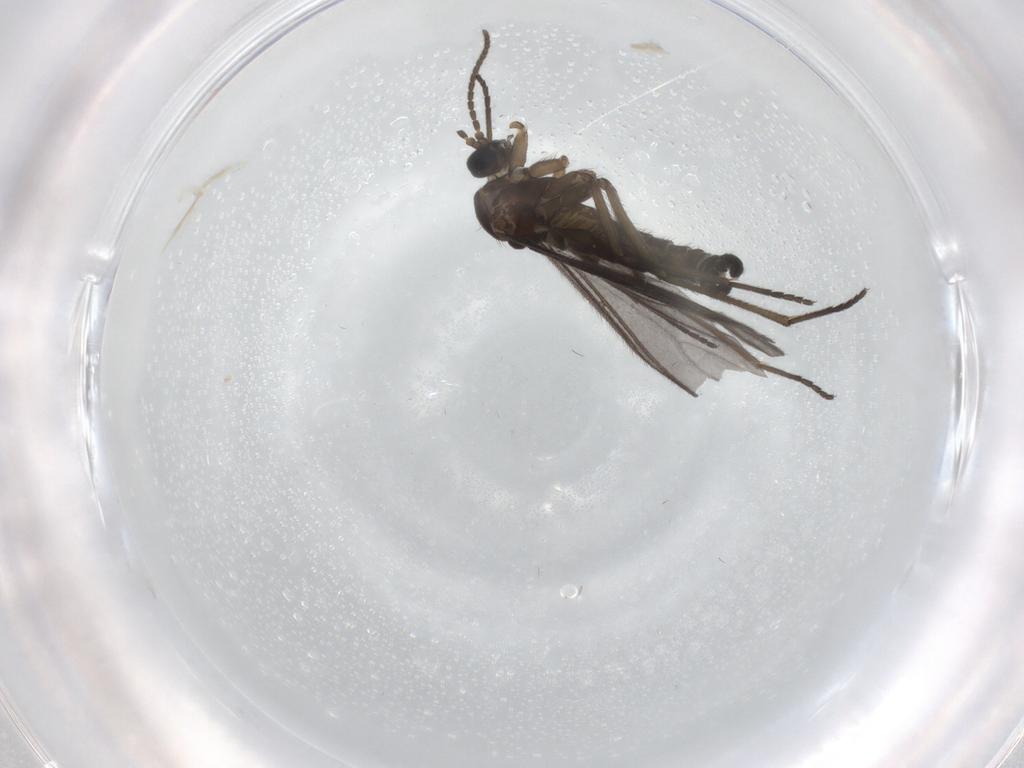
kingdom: Animalia
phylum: Arthropoda
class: Insecta
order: Diptera
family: Cecidomyiidae
